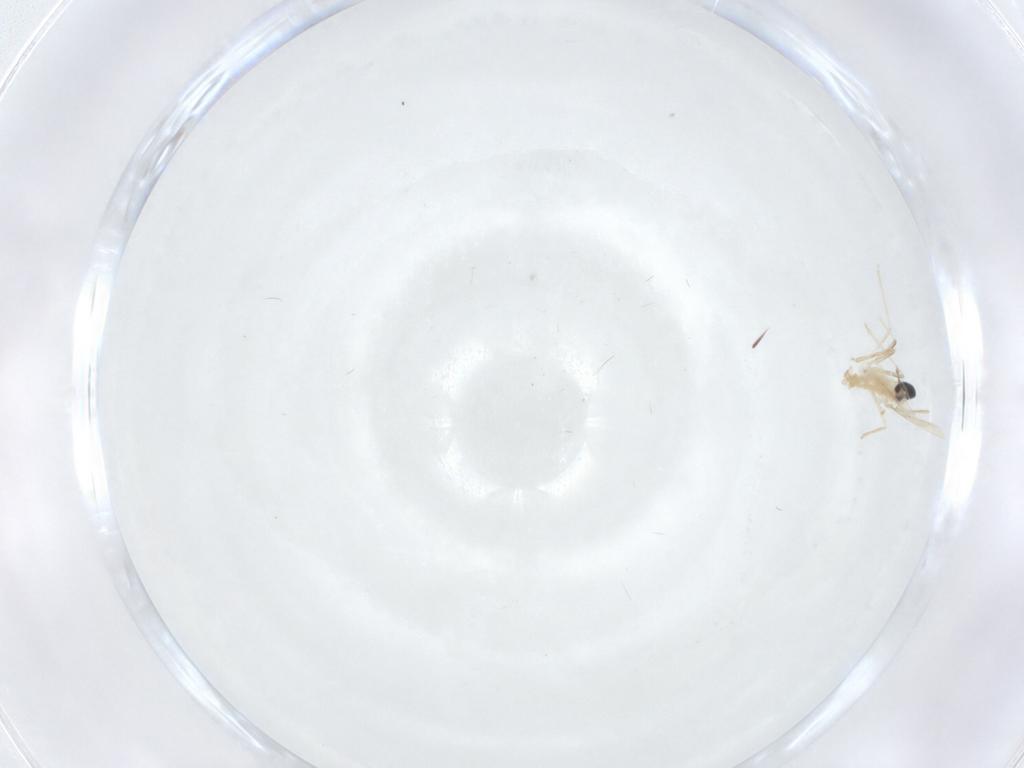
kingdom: Animalia
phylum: Arthropoda
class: Insecta
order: Diptera
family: Cecidomyiidae
